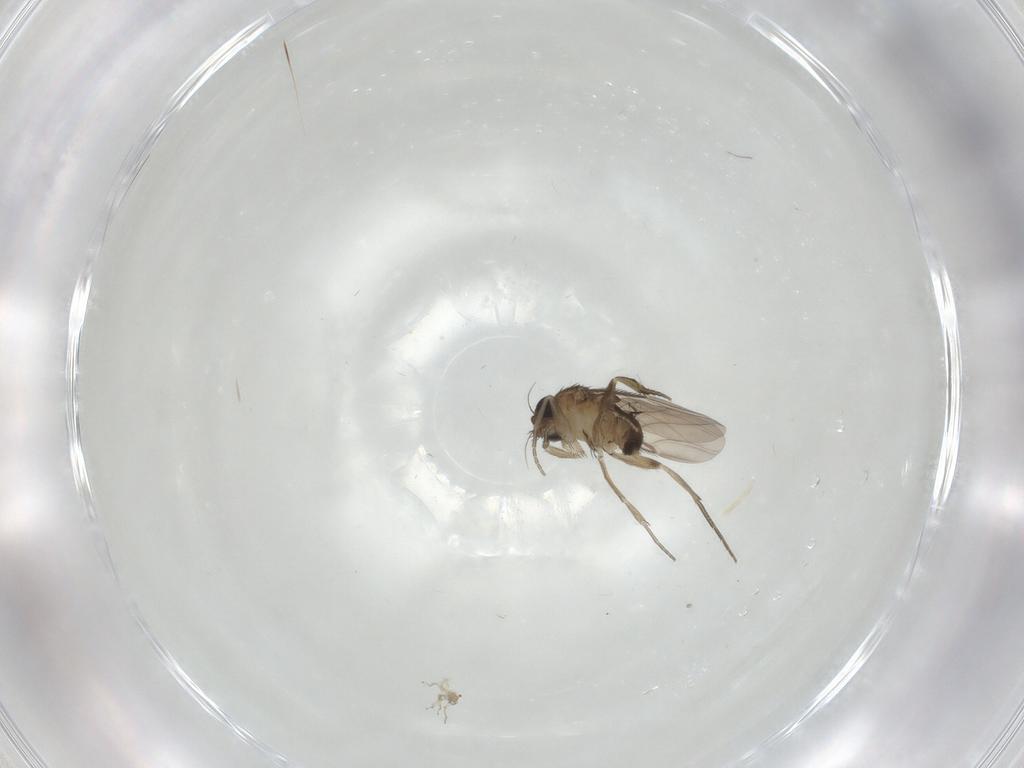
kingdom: Animalia
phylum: Arthropoda
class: Insecta
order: Diptera
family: Phoridae
